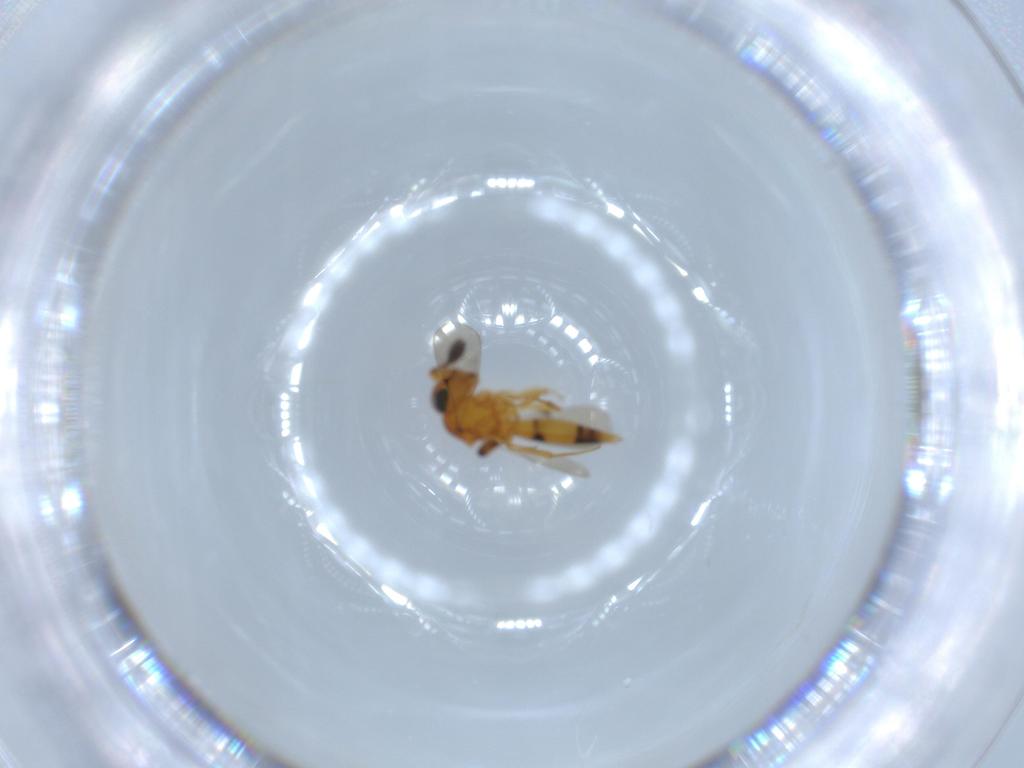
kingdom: Animalia
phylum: Arthropoda
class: Insecta
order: Hymenoptera
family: Scelionidae
